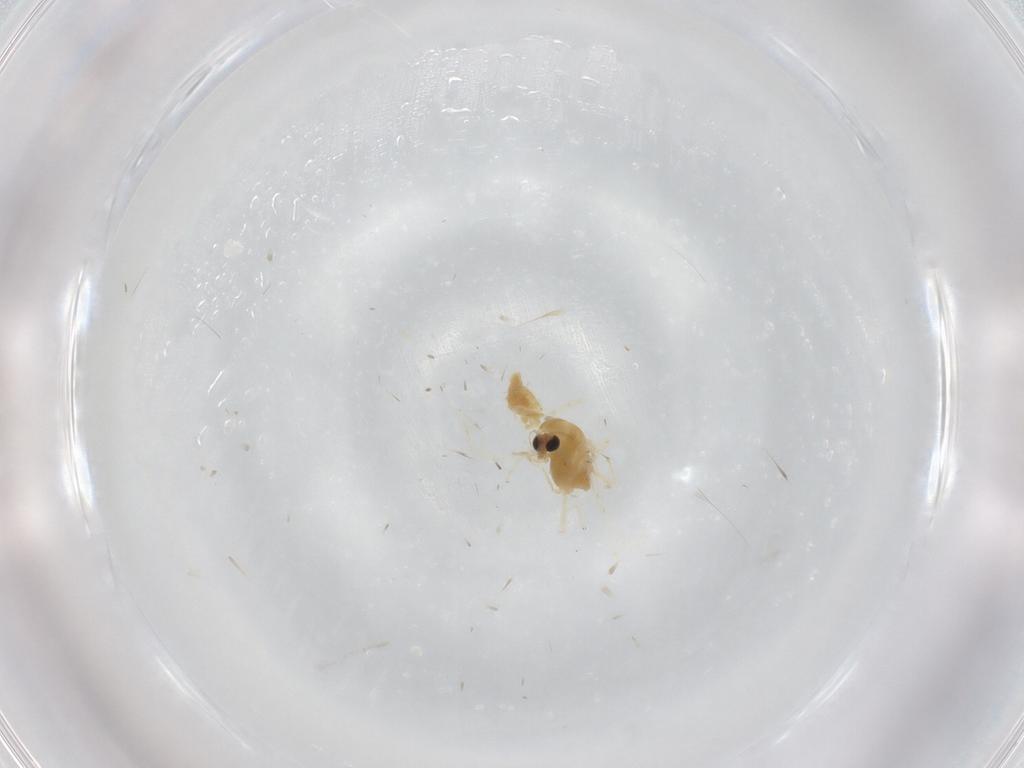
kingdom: Animalia
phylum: Arthropoda
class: Insecta
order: Diptera
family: Chironomidae
